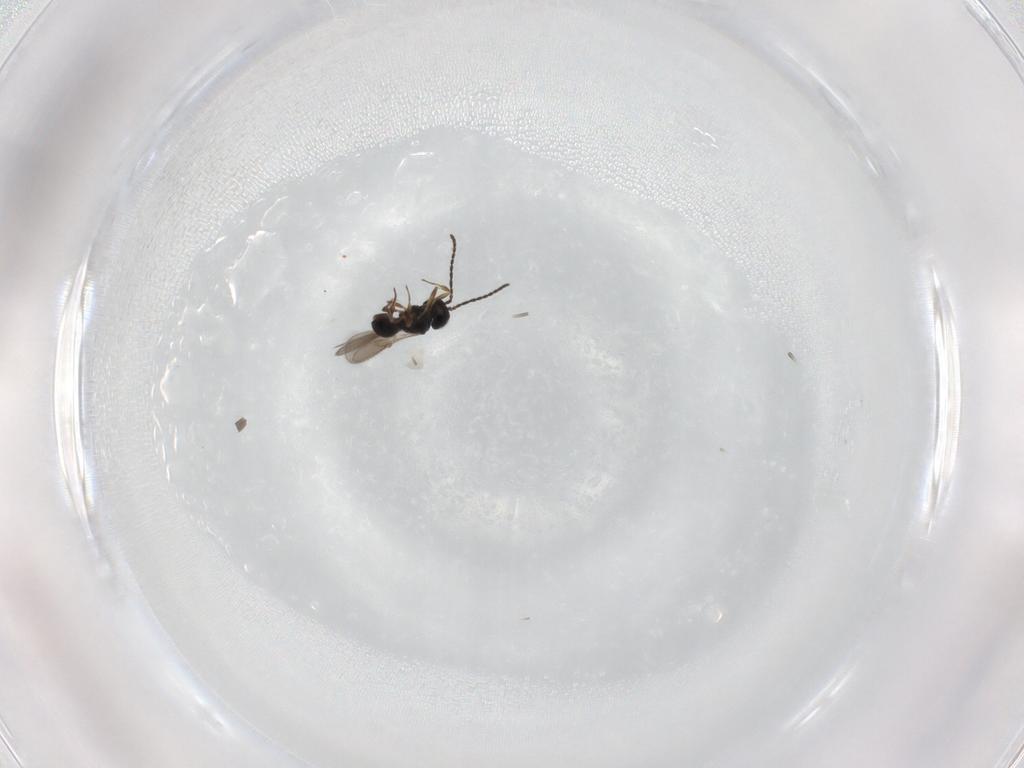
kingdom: Animalia
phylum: Arthropoda
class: Insecta
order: Hymenoptera
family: Scelionidae
